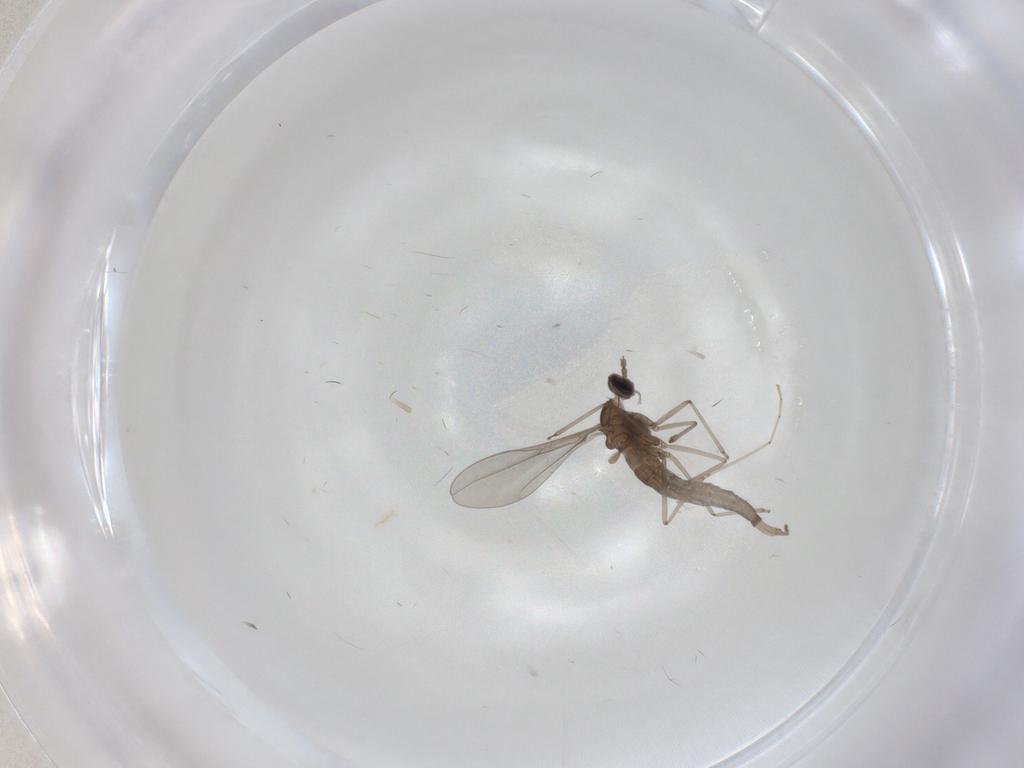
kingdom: Animalia
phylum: Arthropoda
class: Insecta
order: Diptera
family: Cecidomyiidae
